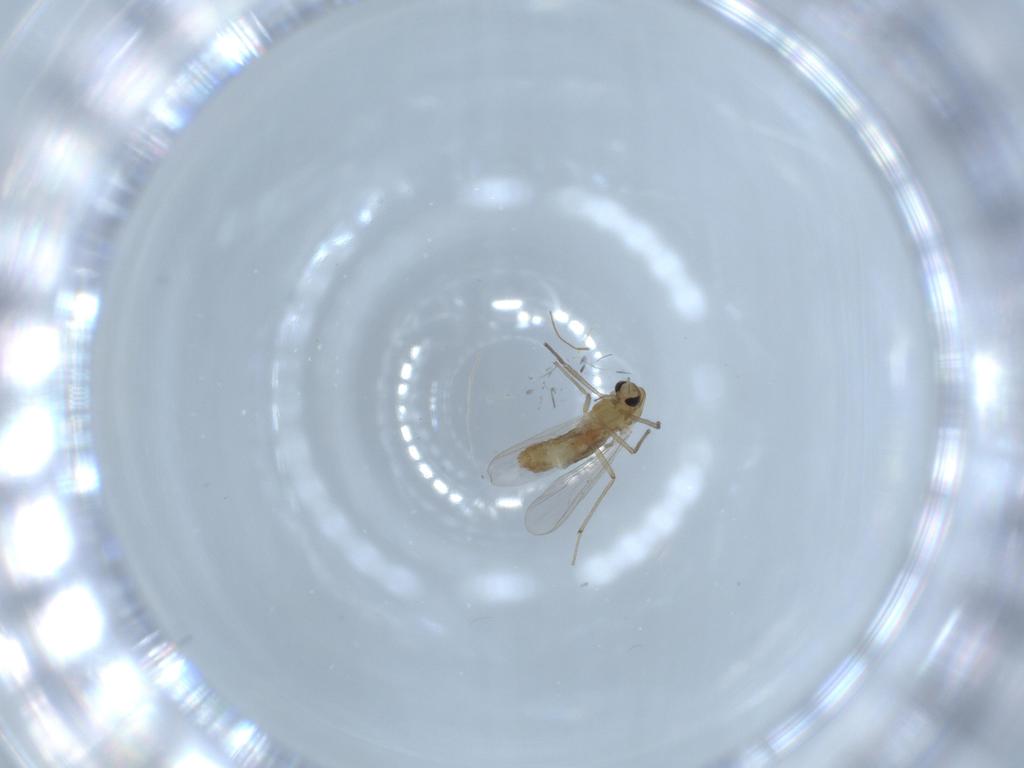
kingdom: Animalia
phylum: Arthropoda
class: Insecta
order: Diptera
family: Chironomidae
